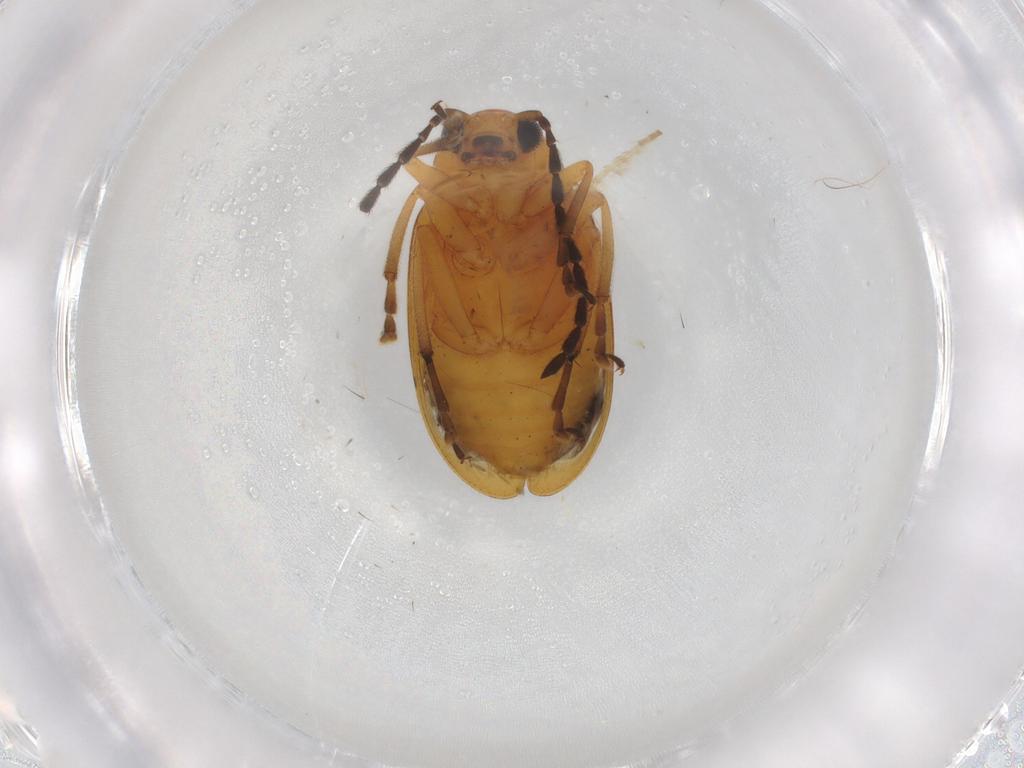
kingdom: Animalia
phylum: Arthropoda
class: Insecta
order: Coleoptera
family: Chrysomelidae
